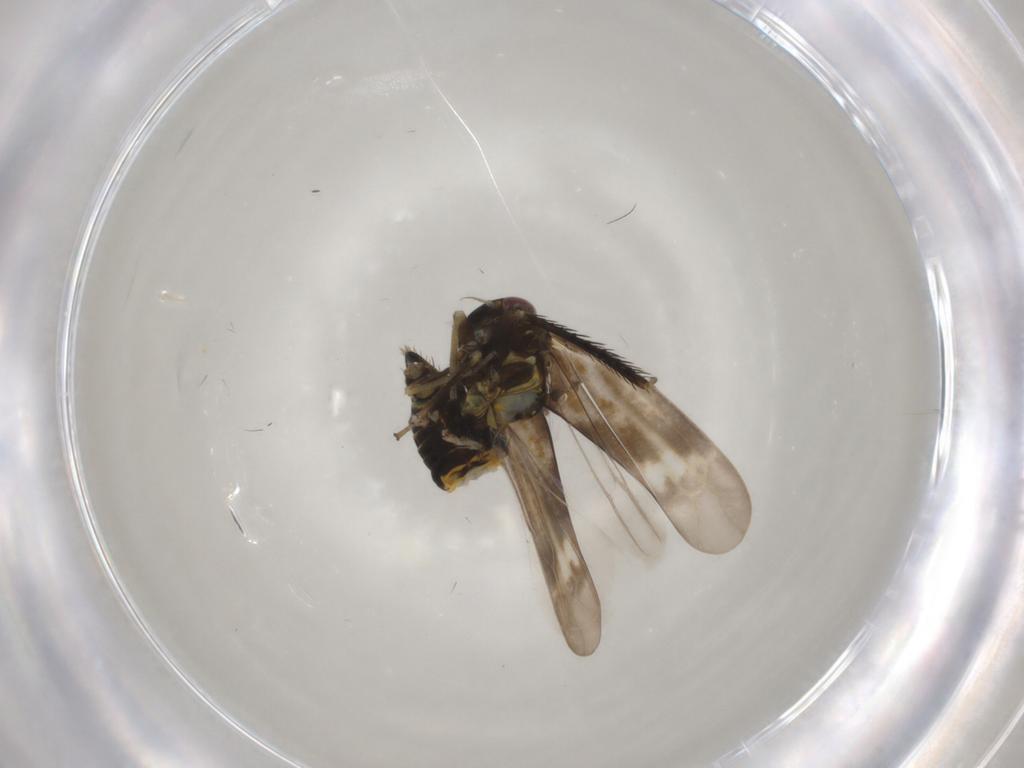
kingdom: Animalia
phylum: Arthropoda
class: Insecta
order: Hemiptera
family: Cicadellidae
